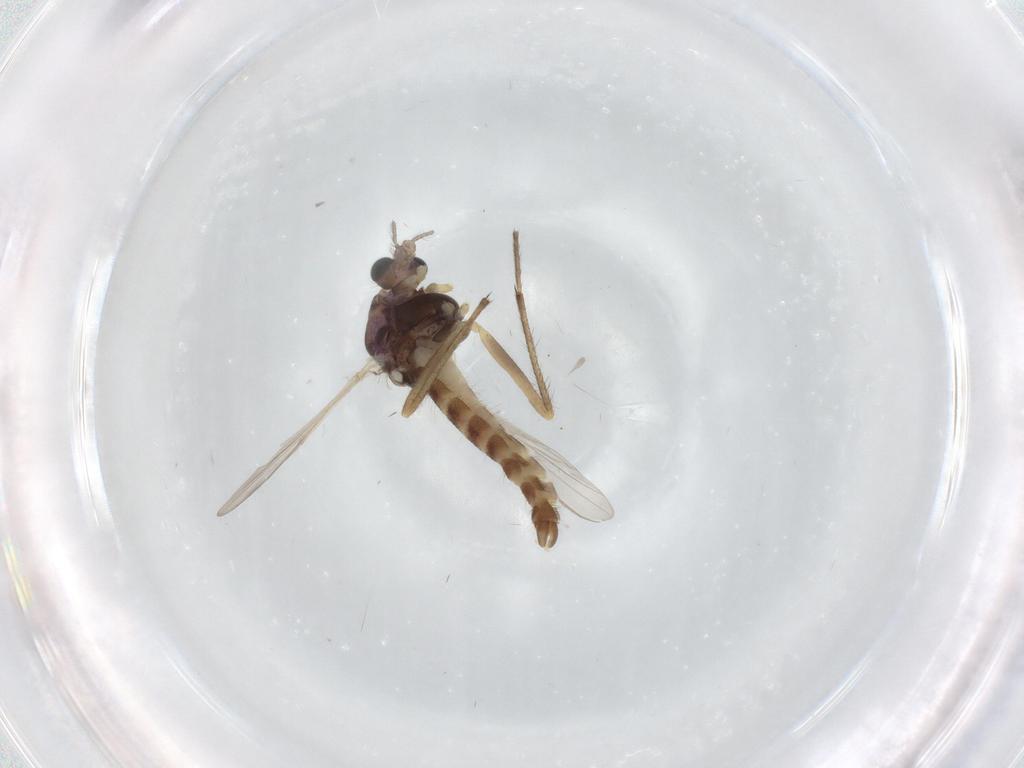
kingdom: Animalia
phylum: Arthropoda
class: Insecta
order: Diptera
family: Chironomidae
